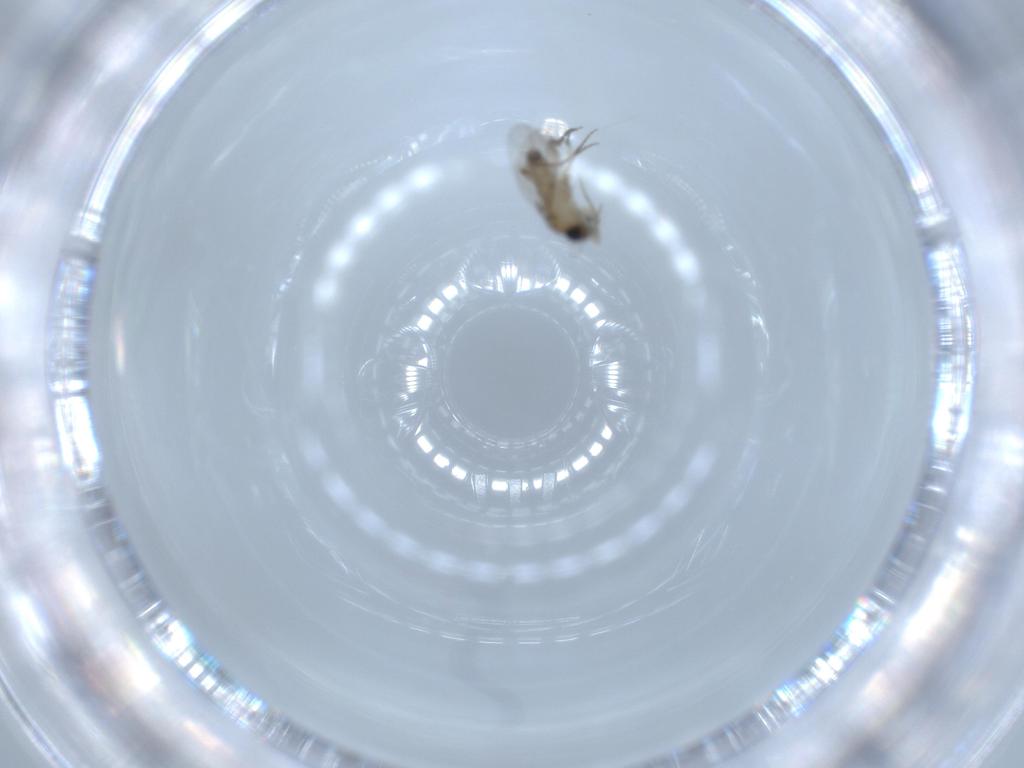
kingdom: Animalia
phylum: Arthropoda
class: Insecta
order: Diptera
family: Phoridae
